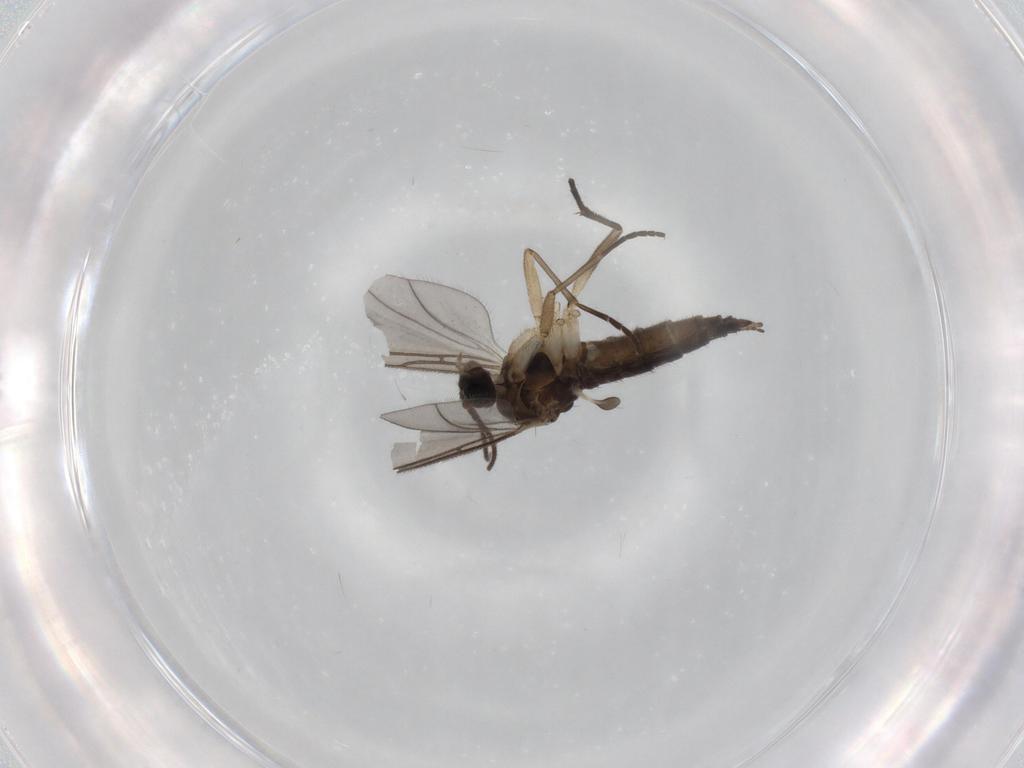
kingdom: Animalia
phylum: Arthropoda
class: Insecta
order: Diptera
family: Sciaridae
